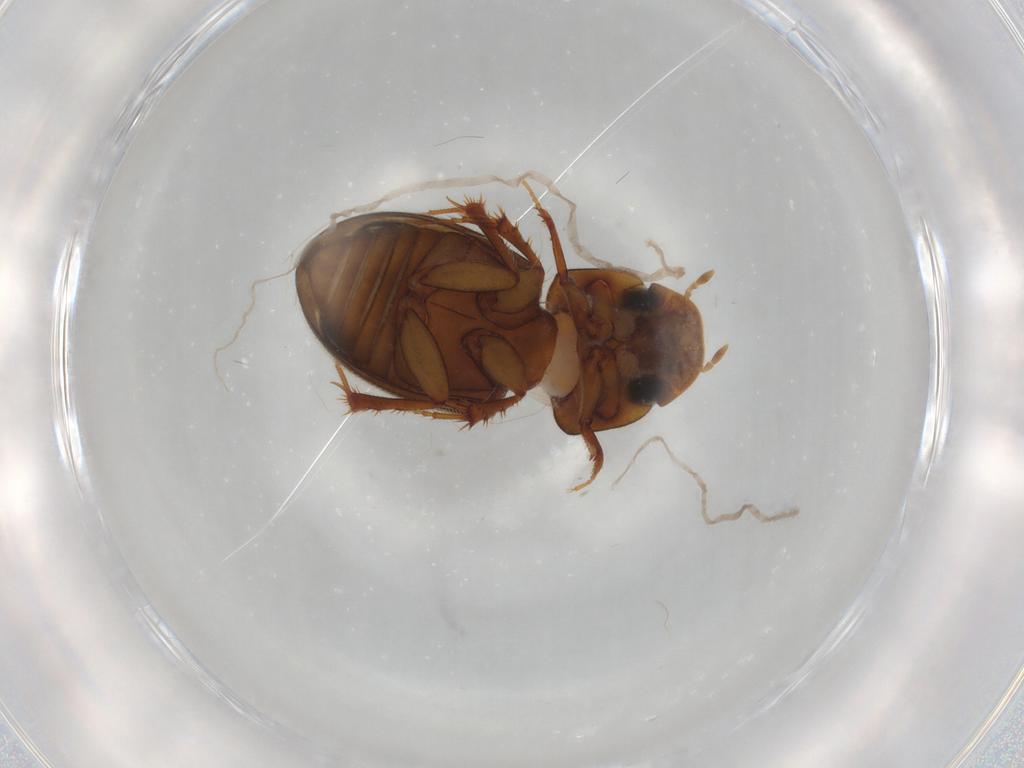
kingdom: Animalia
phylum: Arthropoda
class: Insecta
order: Coleoptera
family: Scarabaeidae
